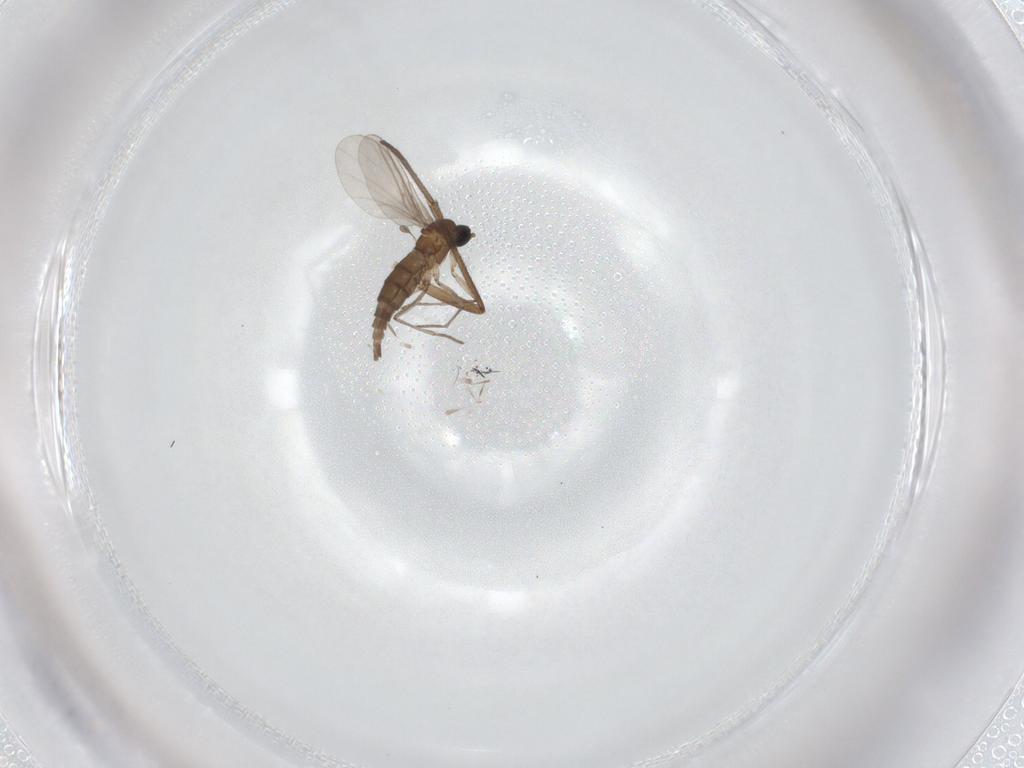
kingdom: Animalia
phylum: Arthropoda
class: Insecta
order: Diptera
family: Sciaridae
